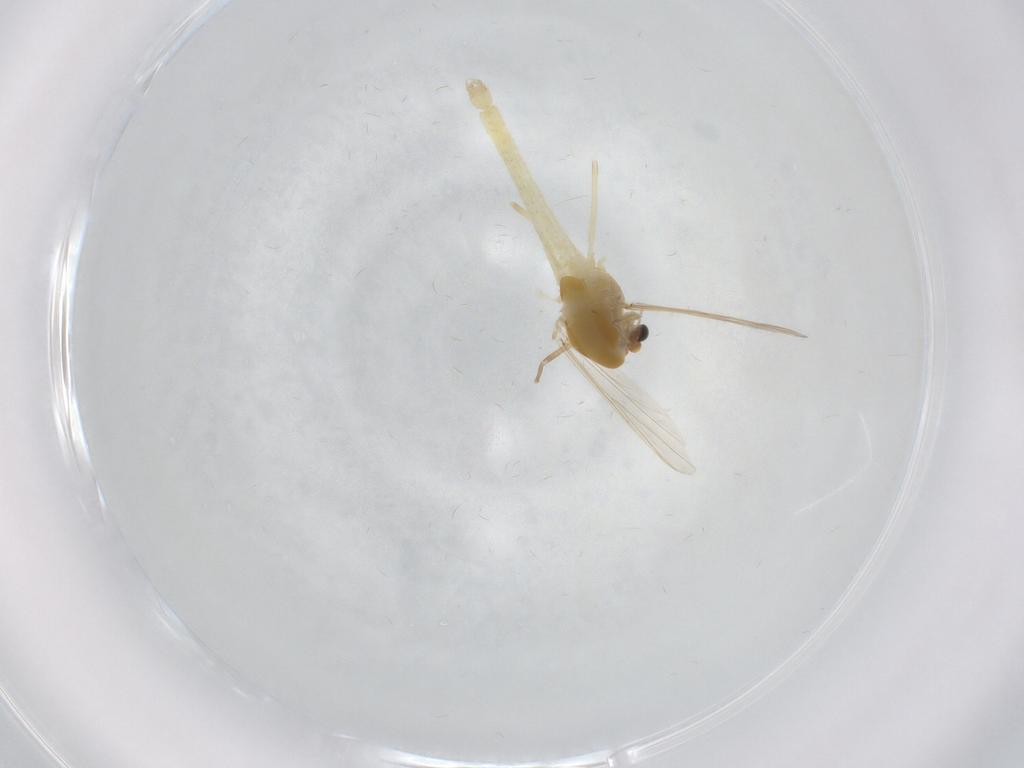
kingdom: Animalia
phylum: Arthropoda
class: Insecta
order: Diptera
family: Chironomidae
